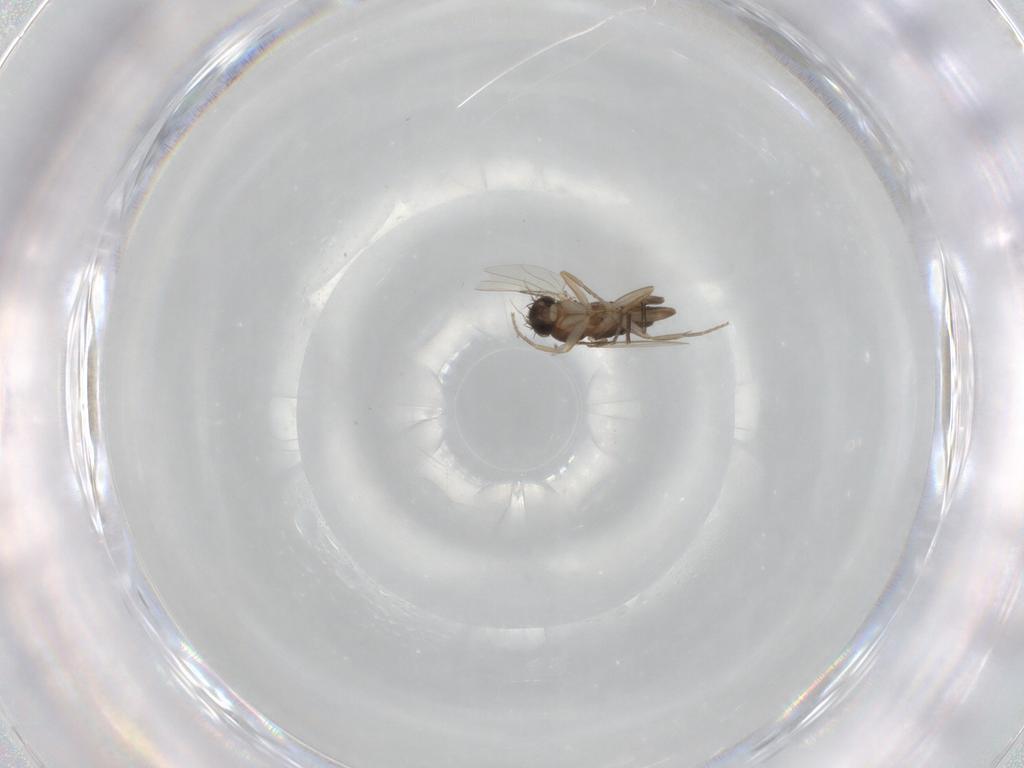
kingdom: Animalia
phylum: Arthropoda
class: Insecta
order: Diptera
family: Phoridae
